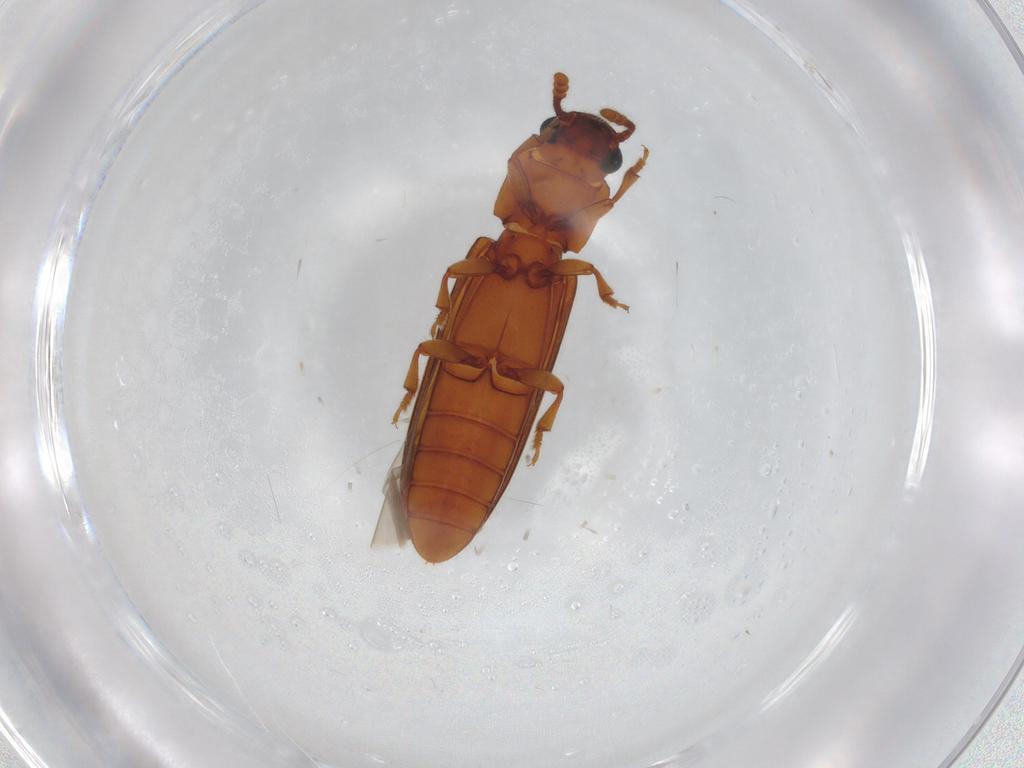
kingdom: Animalia
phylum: Arthropoda
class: Insecta
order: Coleoptera
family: Erotylidae
